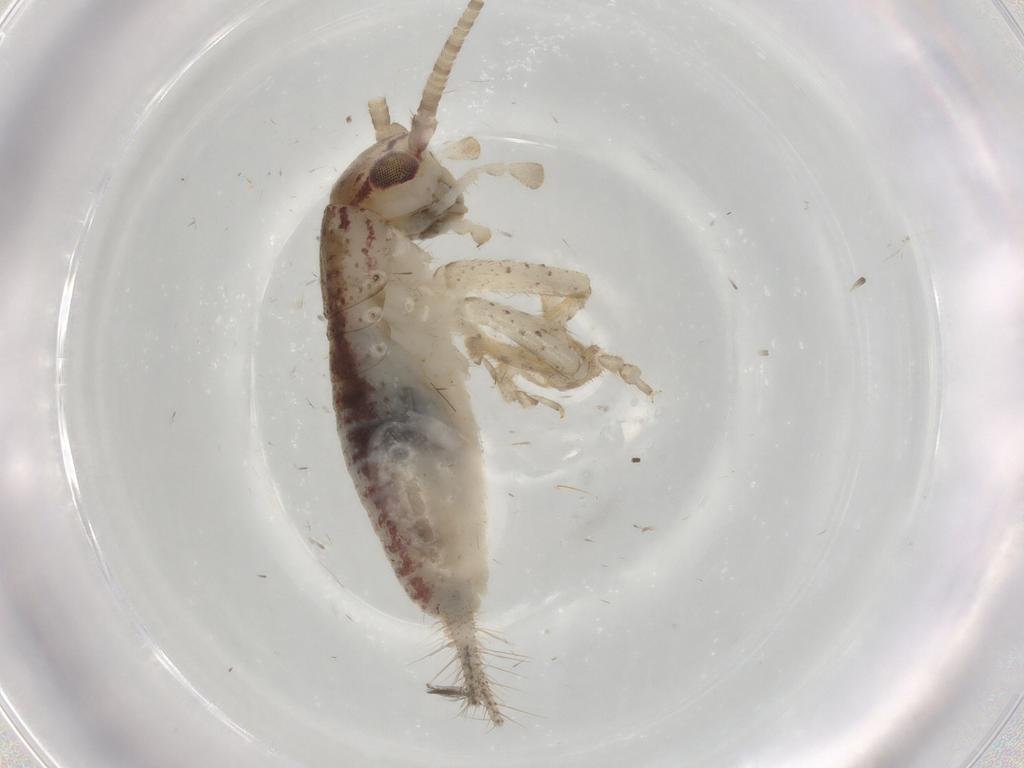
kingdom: Animalia
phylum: Arthropoda
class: Insecta
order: Orthoptera
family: Gryllidae
